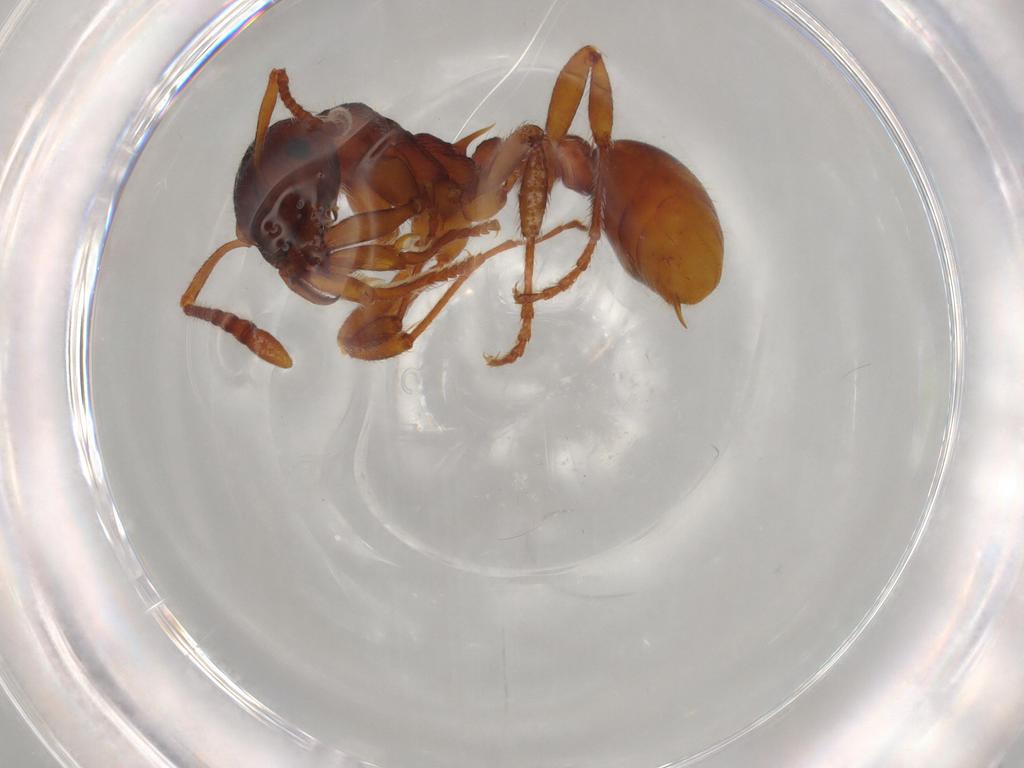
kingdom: Animalia
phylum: Arthropoda
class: Insecta
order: Hymenoptera
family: Formicidae
